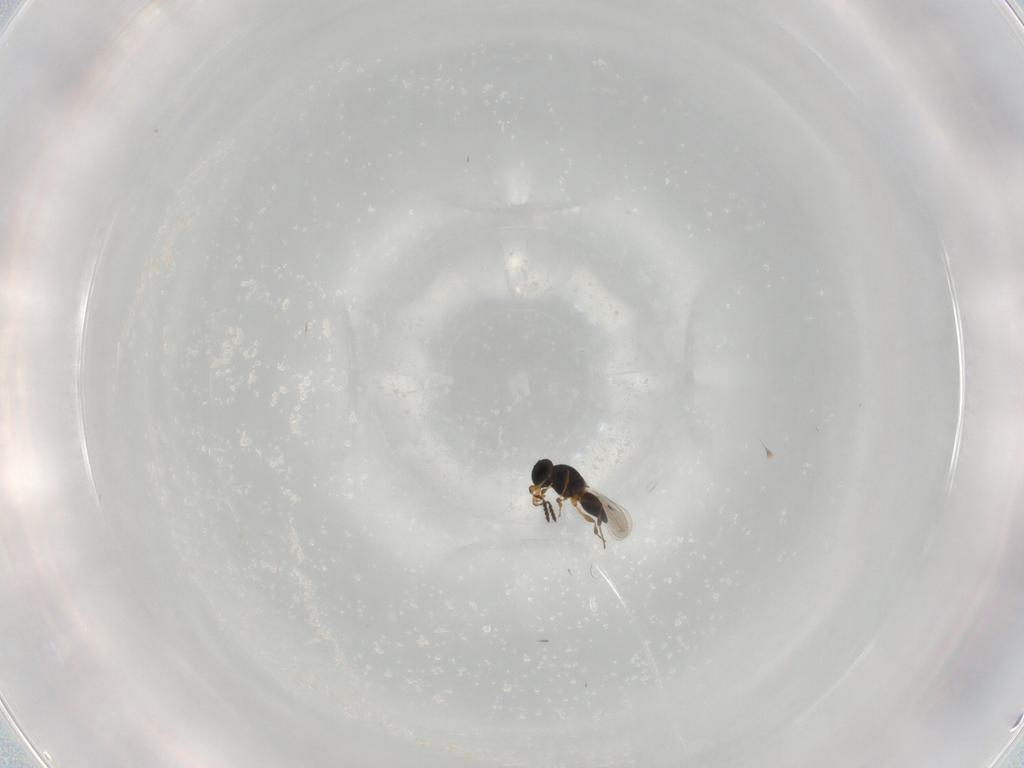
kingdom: Animalia
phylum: Arthropoda
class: Insecta
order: Hymenoptera
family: Platygastridae
